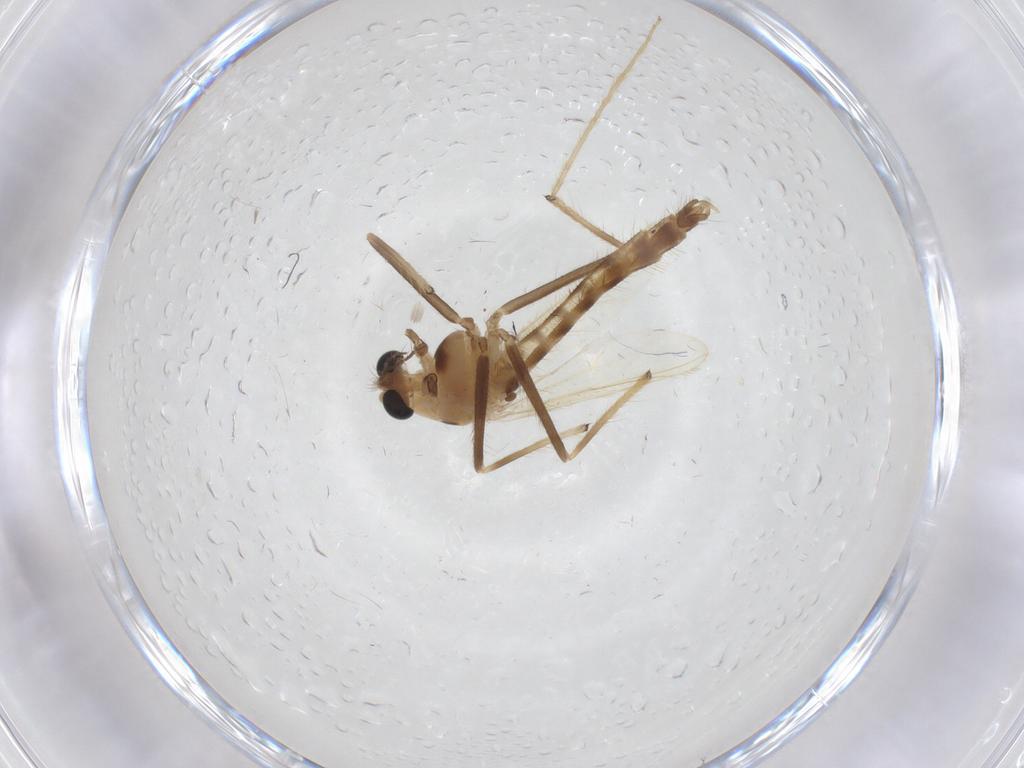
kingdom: Animalia
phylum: Arthropoda
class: Insecta
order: Diptera
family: Chironomidae
